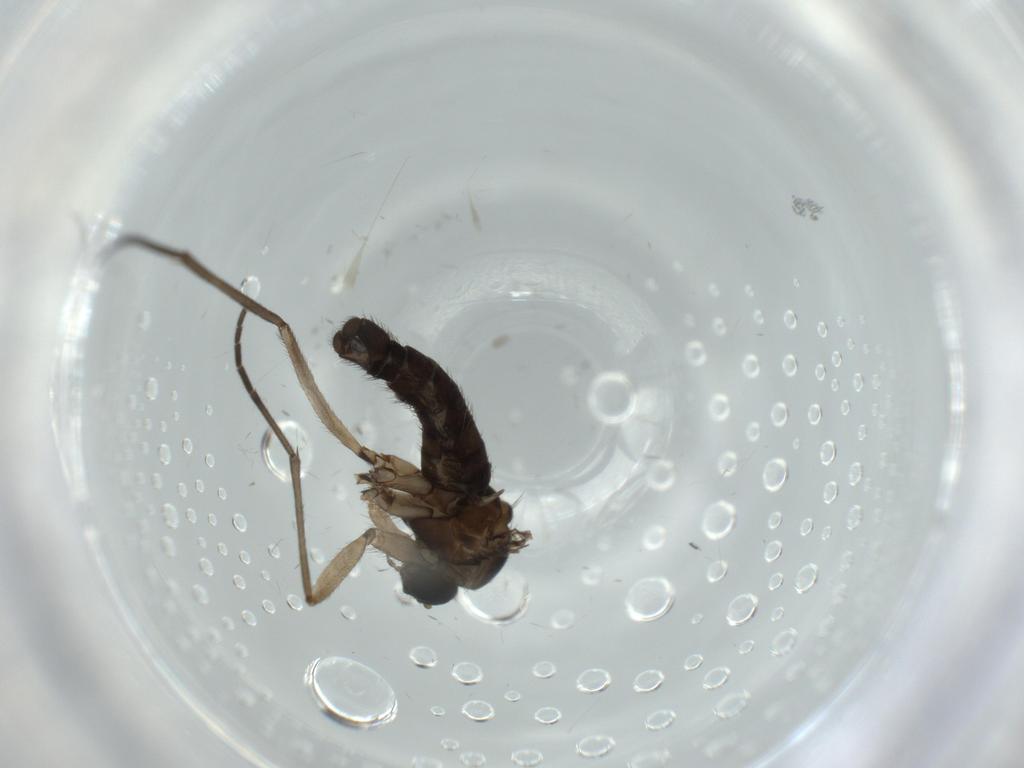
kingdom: Animalia
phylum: Arthropoda
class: Insecta
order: Diptera
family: Sciaridae
